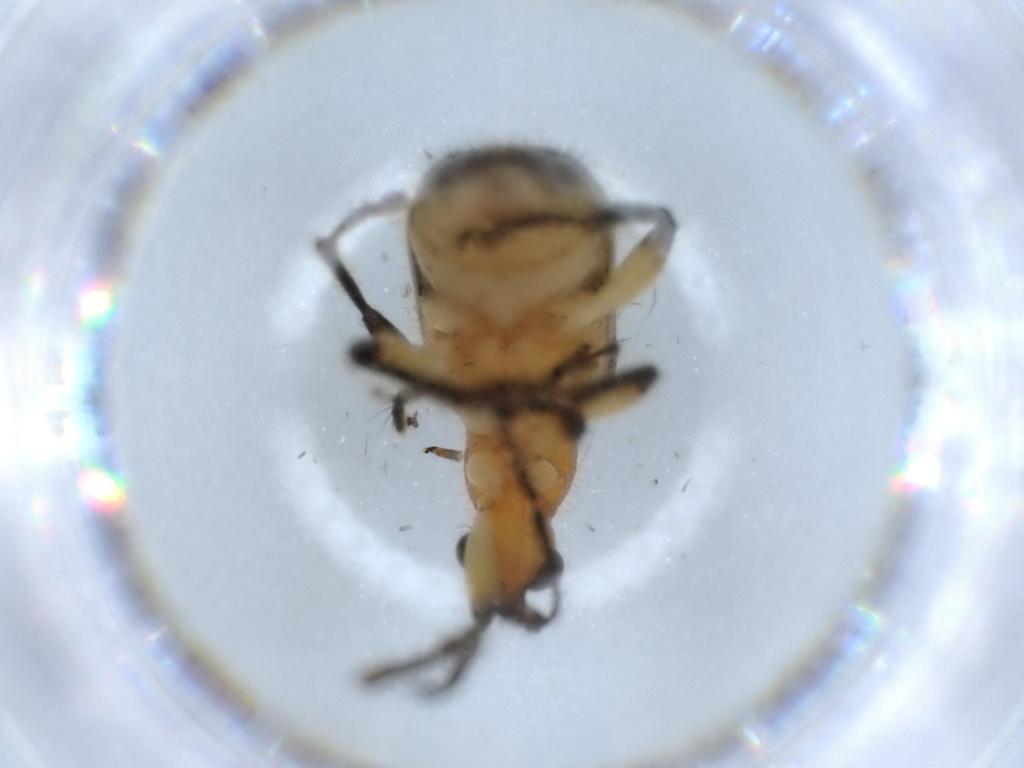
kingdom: Animalia
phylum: Arthropoda
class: Insecta
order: Coleoptera
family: Attelabidae
